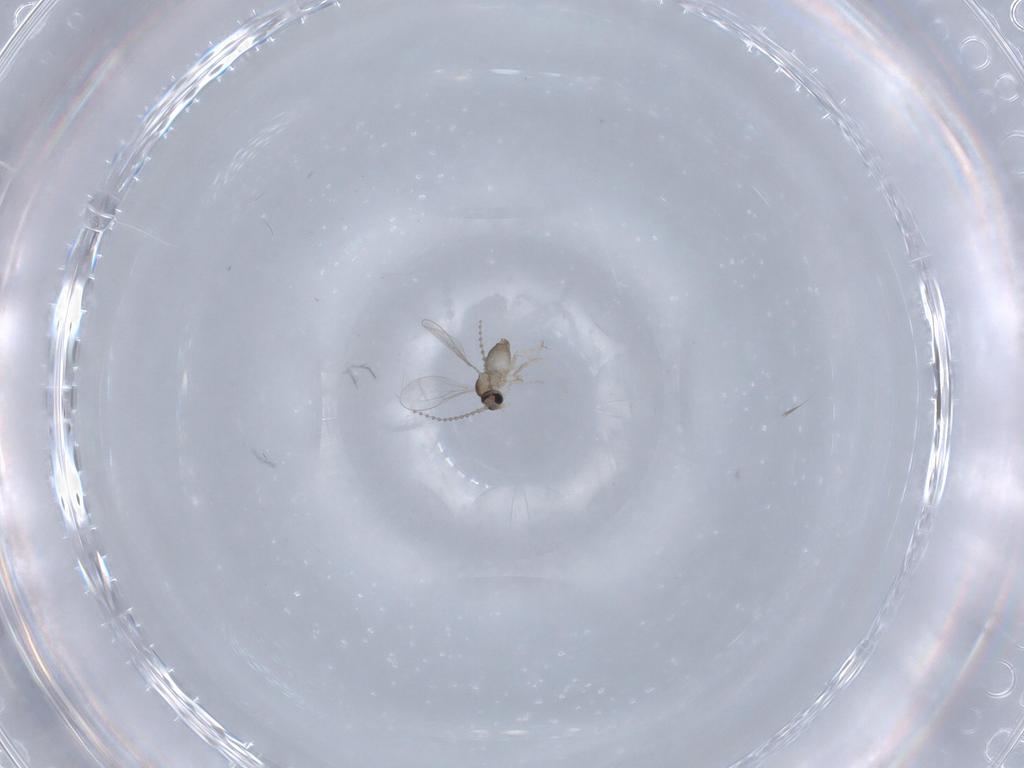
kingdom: Animalia
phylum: Arthropoda
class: Insecta
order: Diptera
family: Cecidomyiidae
